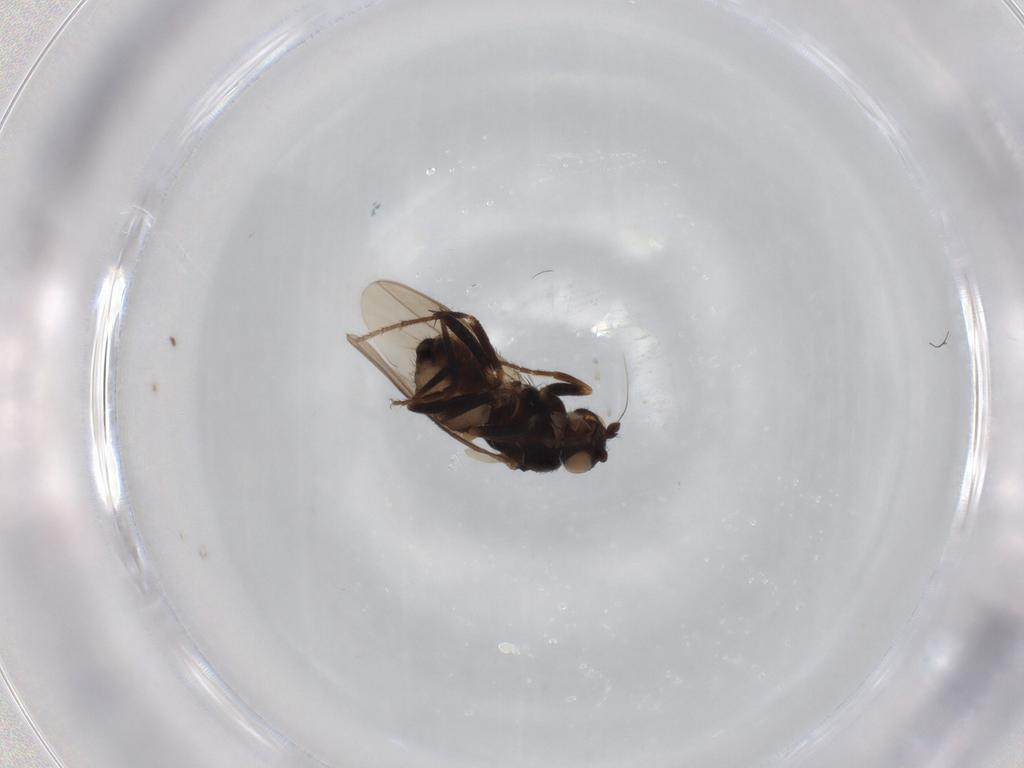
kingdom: Animalia
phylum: Arthropoda
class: Insecta
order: Diptera
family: Sphaeroceridae
